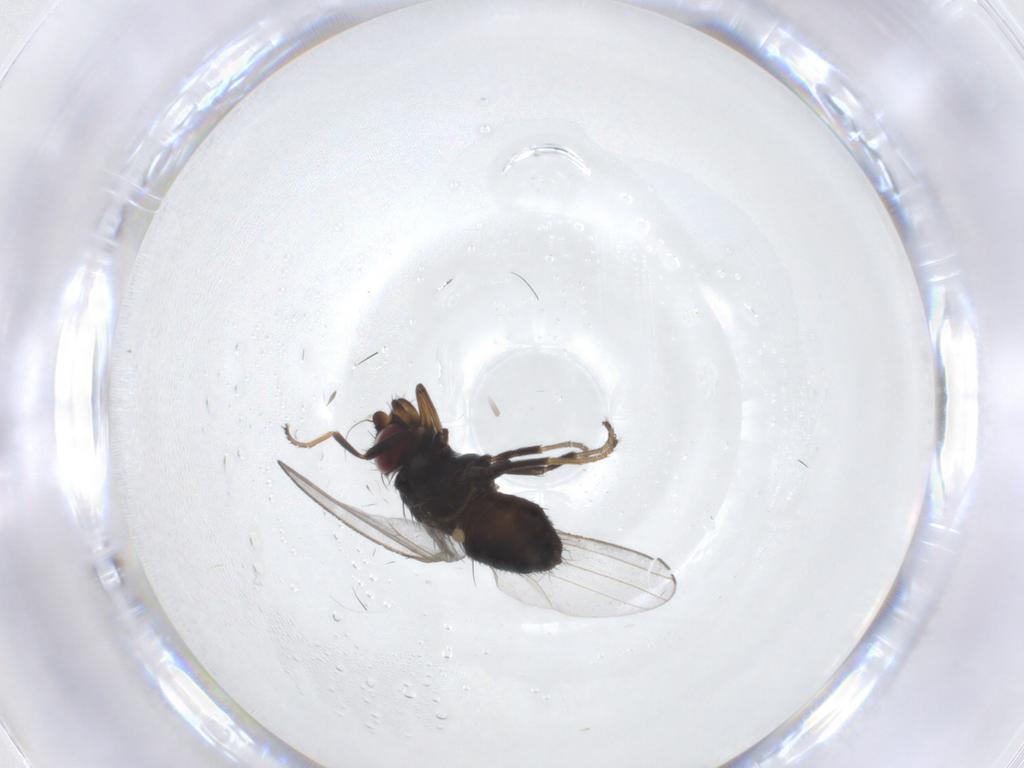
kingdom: Animalia
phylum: Arthropoda
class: Insecta
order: Diptera
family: Milichiidae
